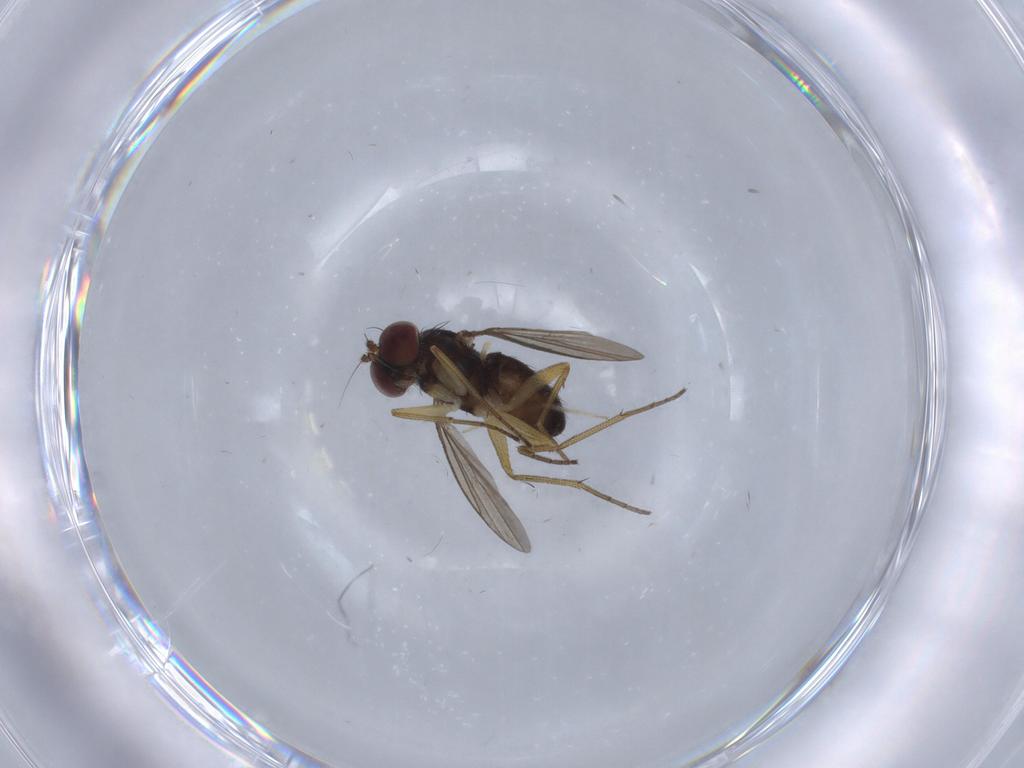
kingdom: Animalia
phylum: Arthropoda
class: Insecta
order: Diptera
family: Dolichopodidae
